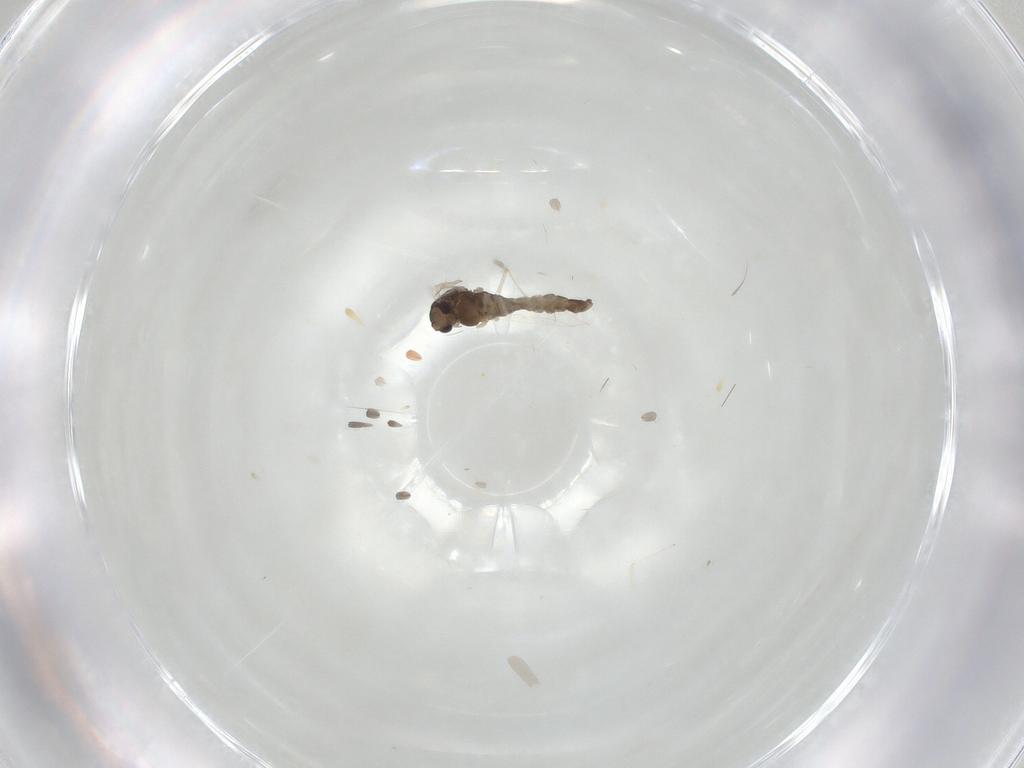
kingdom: Animalia
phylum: Arthropoda
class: Insecta
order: Diptera
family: Chironomidae
